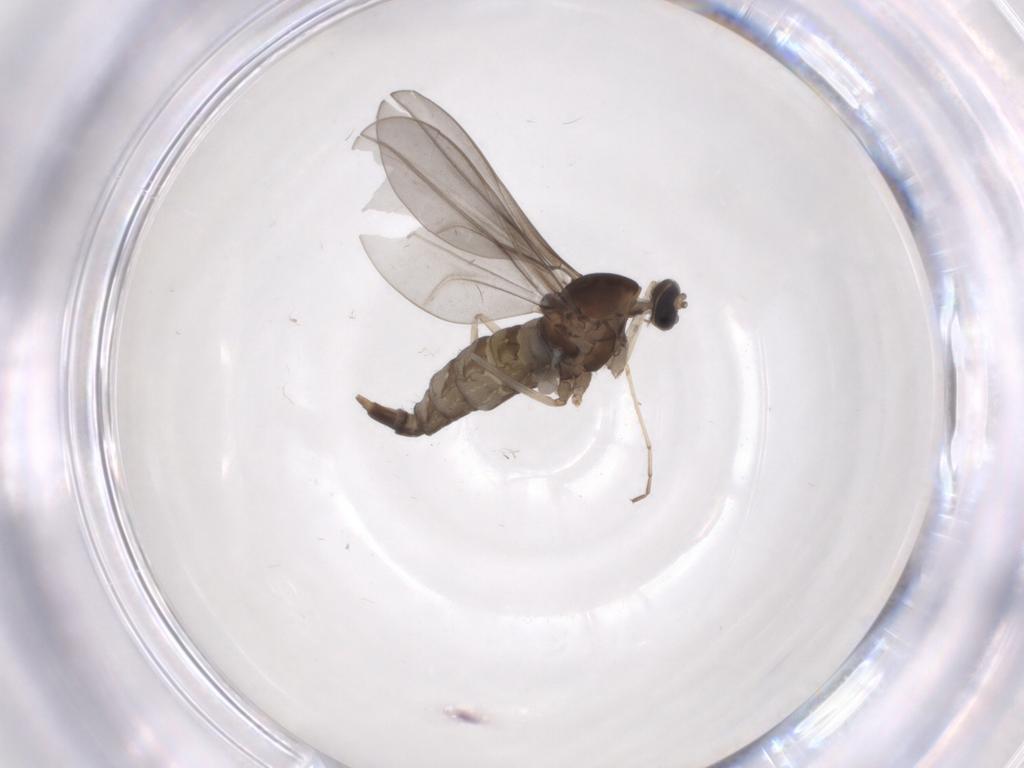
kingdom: Animalia
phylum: Arthropoda
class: Insecta
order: Diptera
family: Cecidomyiidae
